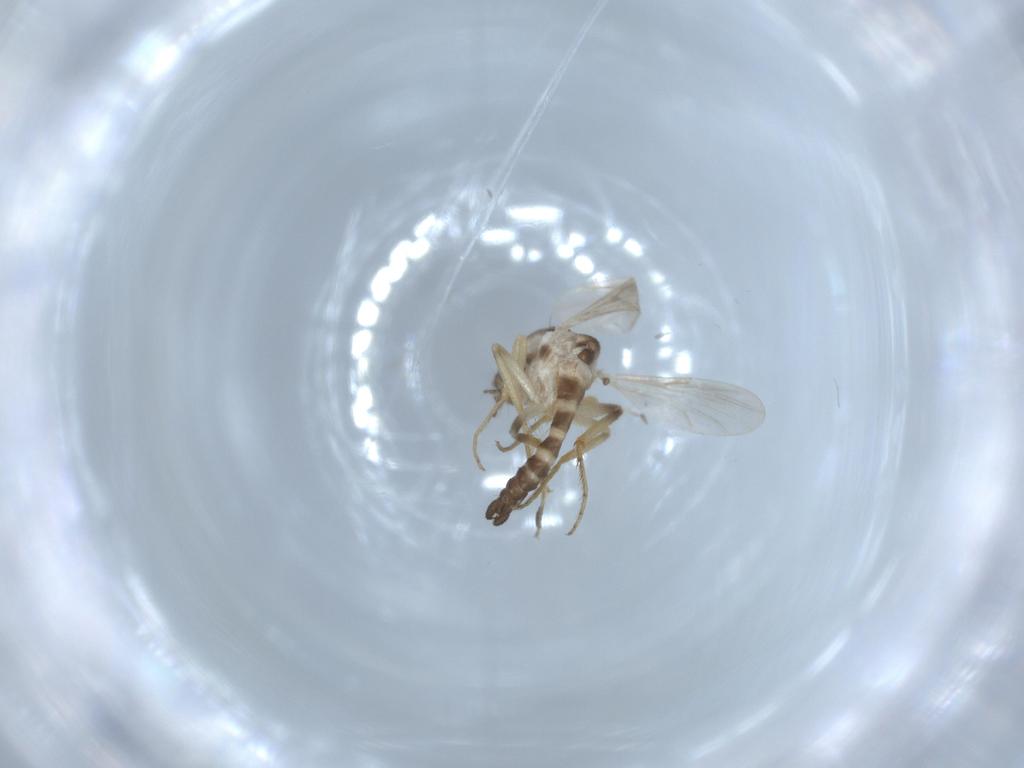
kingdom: Animalia
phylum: Arthropoda
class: Insecta
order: Diptera
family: Ceratopogonidae
